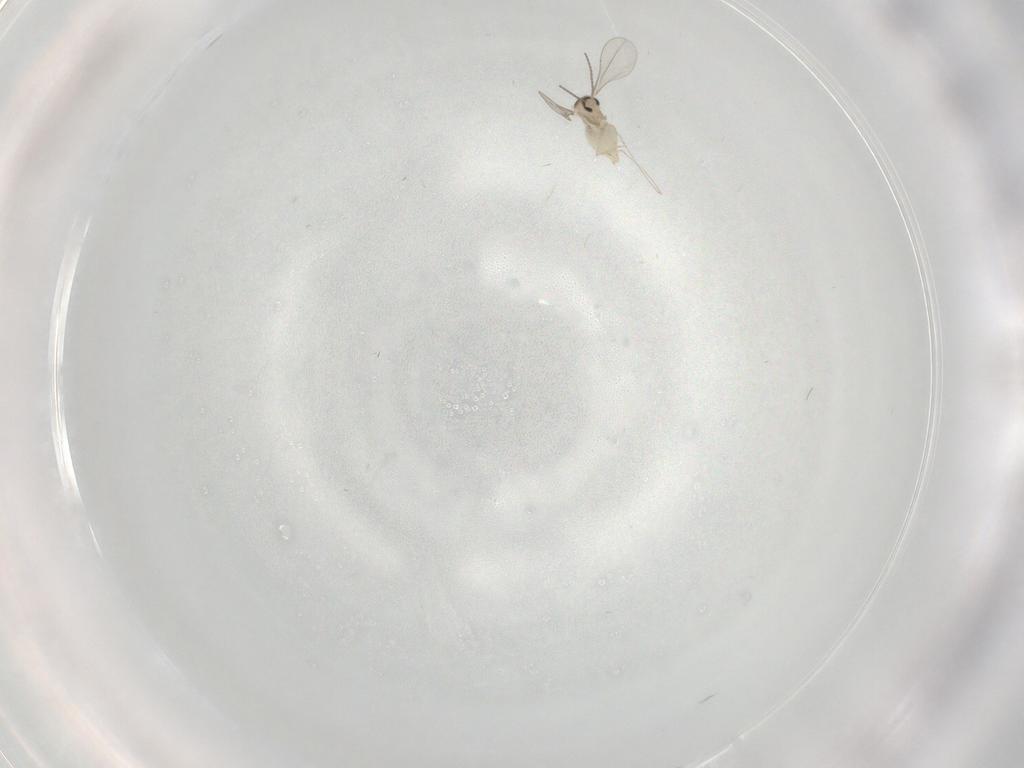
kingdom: Animalia
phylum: Arthropoda
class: Insecta
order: Diptera
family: Cecidomyiidae
